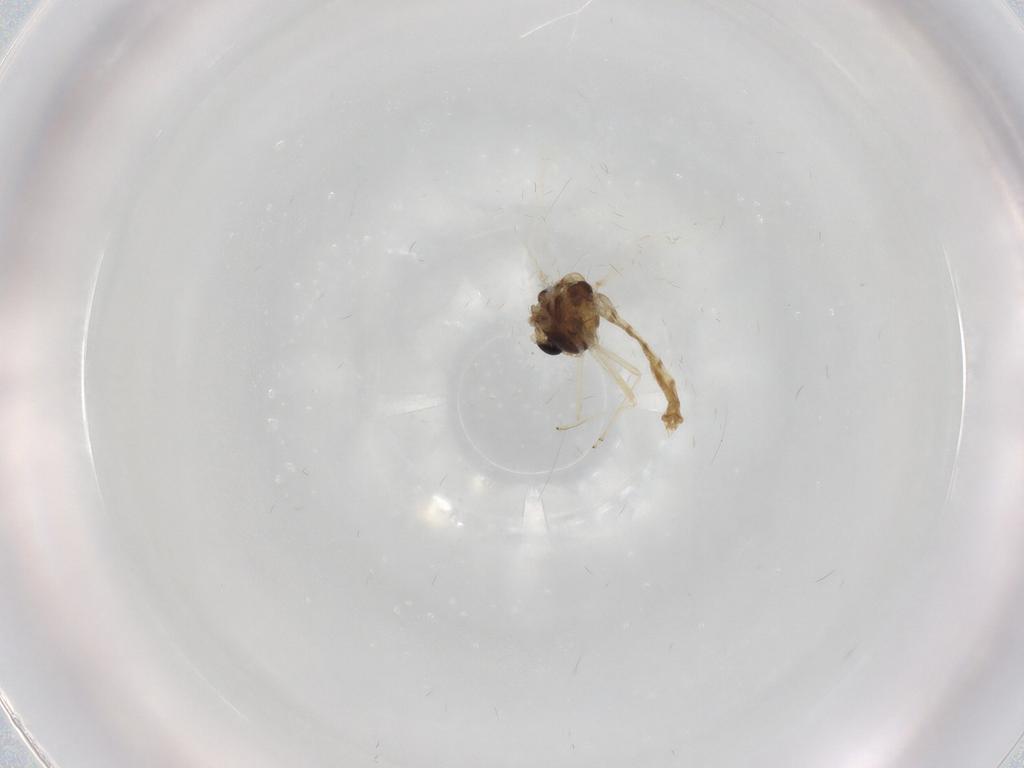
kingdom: Animalia
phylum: Arthropoda
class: Insecta
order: Diptera
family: Chironomidae
